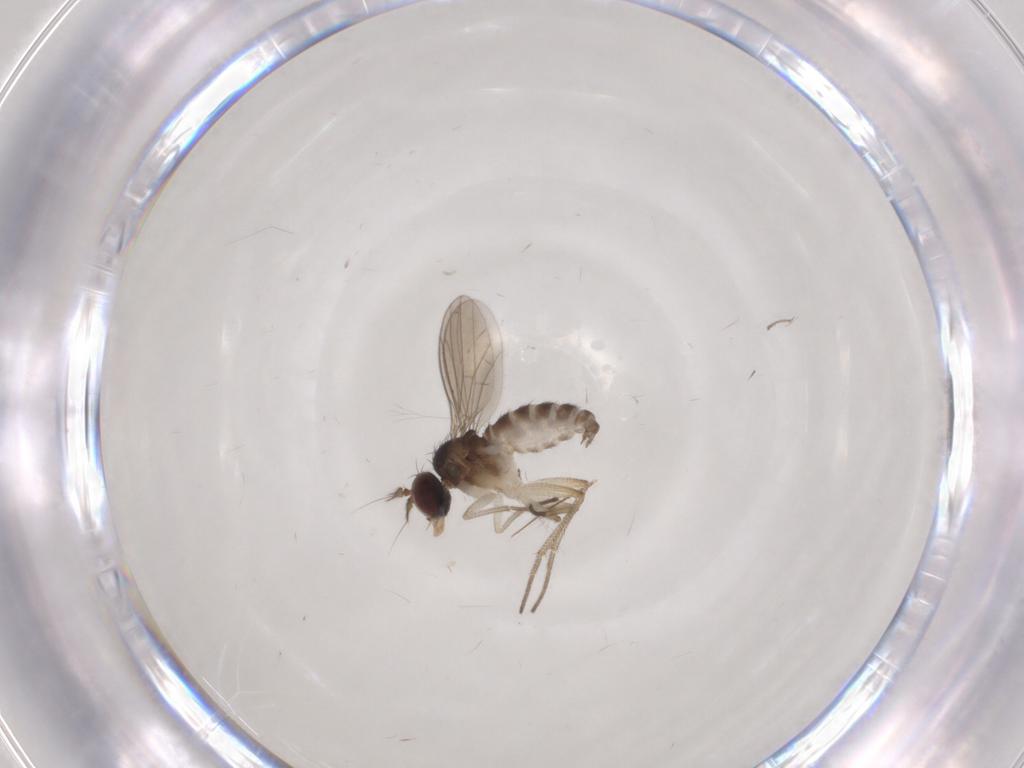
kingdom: Animalia
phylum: Arthropoda
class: Insecta
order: Diptera
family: Dolichopodidae
